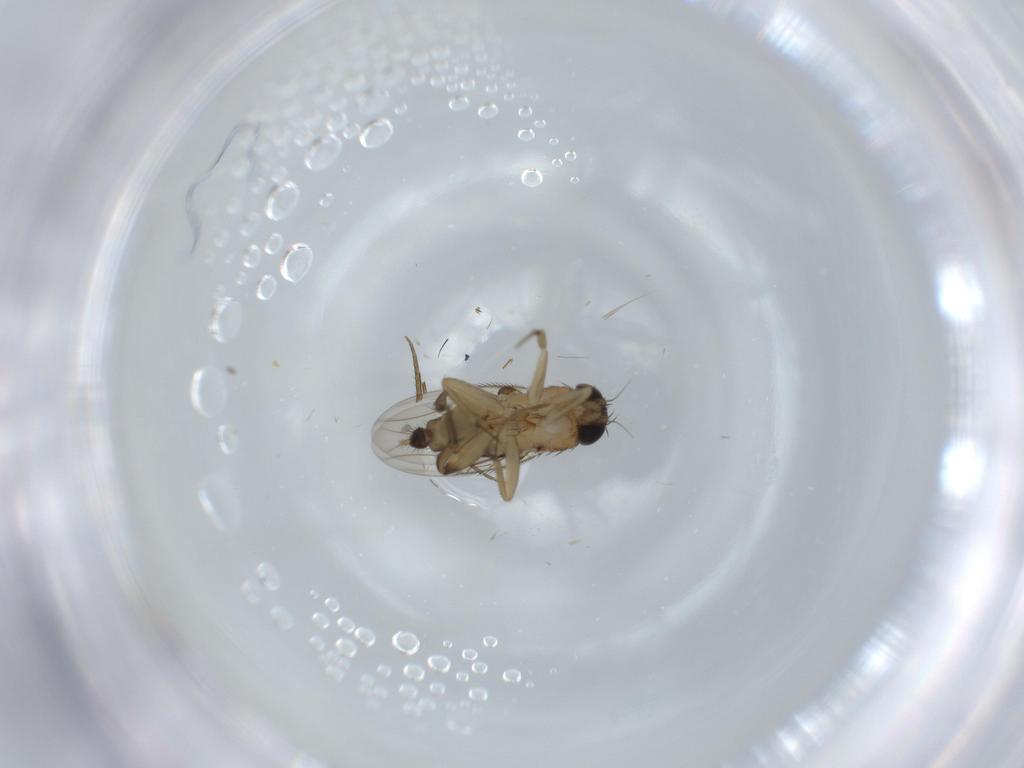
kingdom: Animalia
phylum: Arthropoda
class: Insecta
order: Diptera
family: Phoridae
